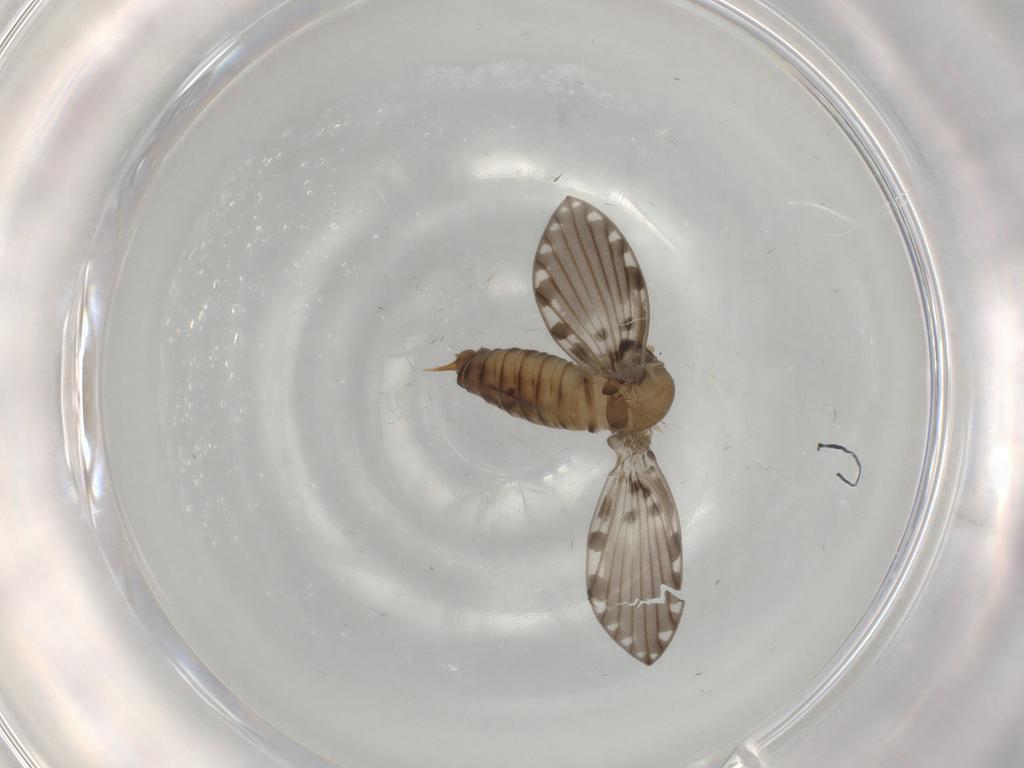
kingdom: Animalia
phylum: Arthropoda
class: Insecta
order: Diptera
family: Psychodidae
